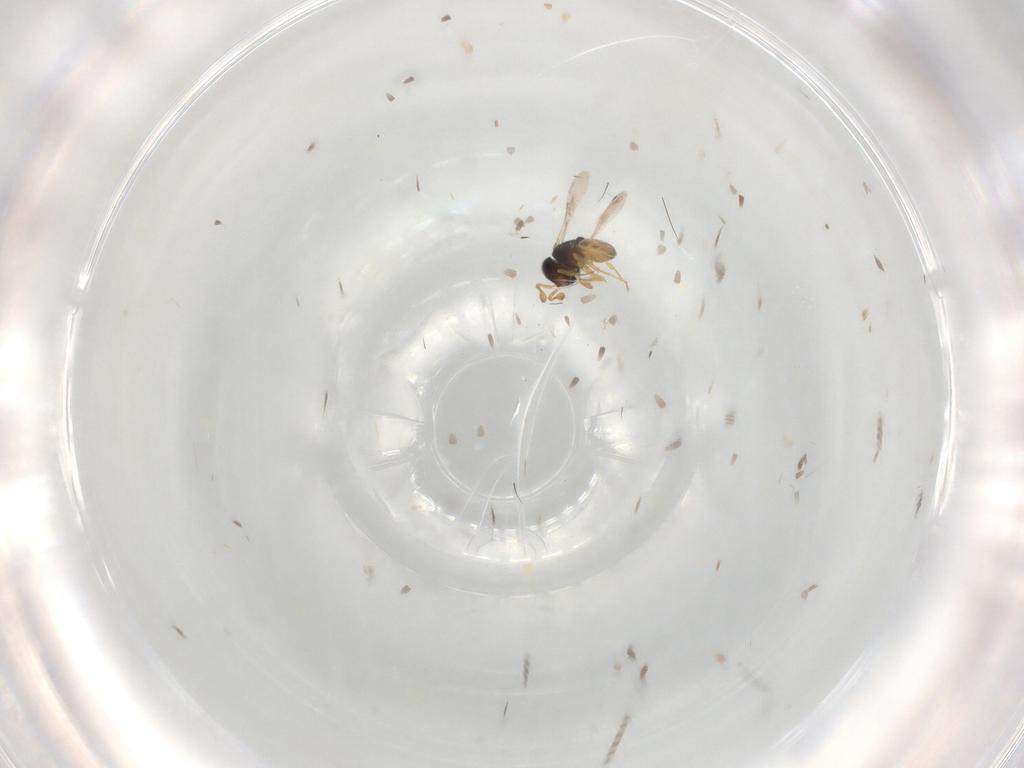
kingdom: Animalia
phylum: Arthropoda
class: Insecta
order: Hymenoptera
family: Scelionidae
